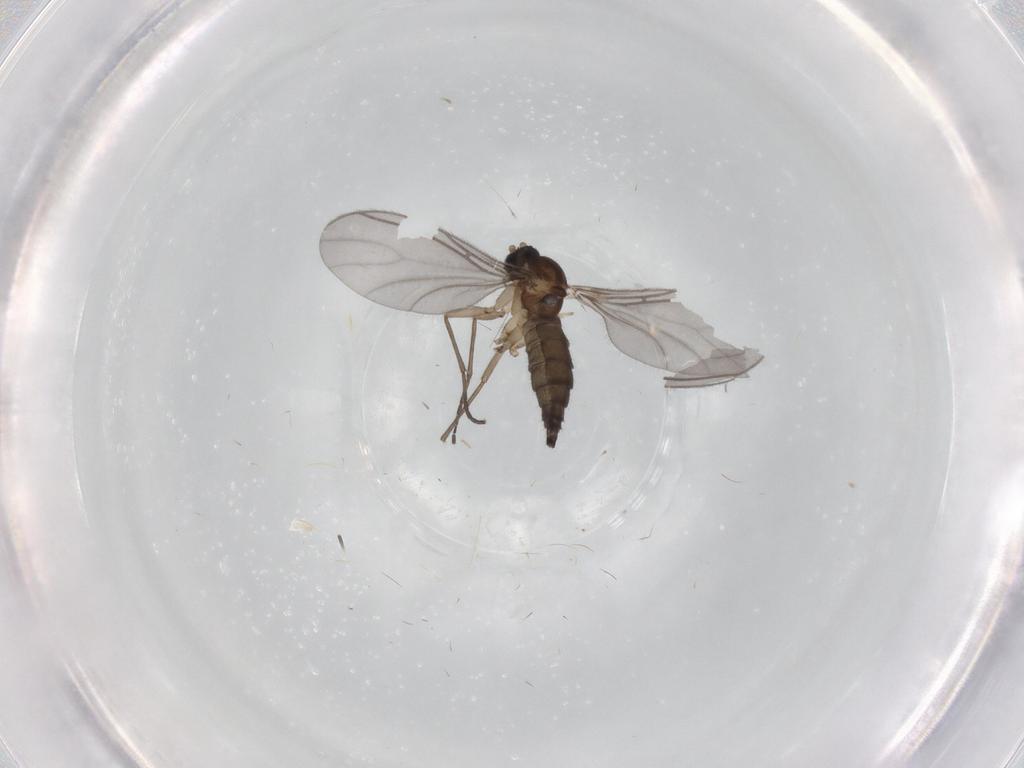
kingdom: Animalia
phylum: Arthropoda
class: Insecta
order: Diptera
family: Sciaridae
